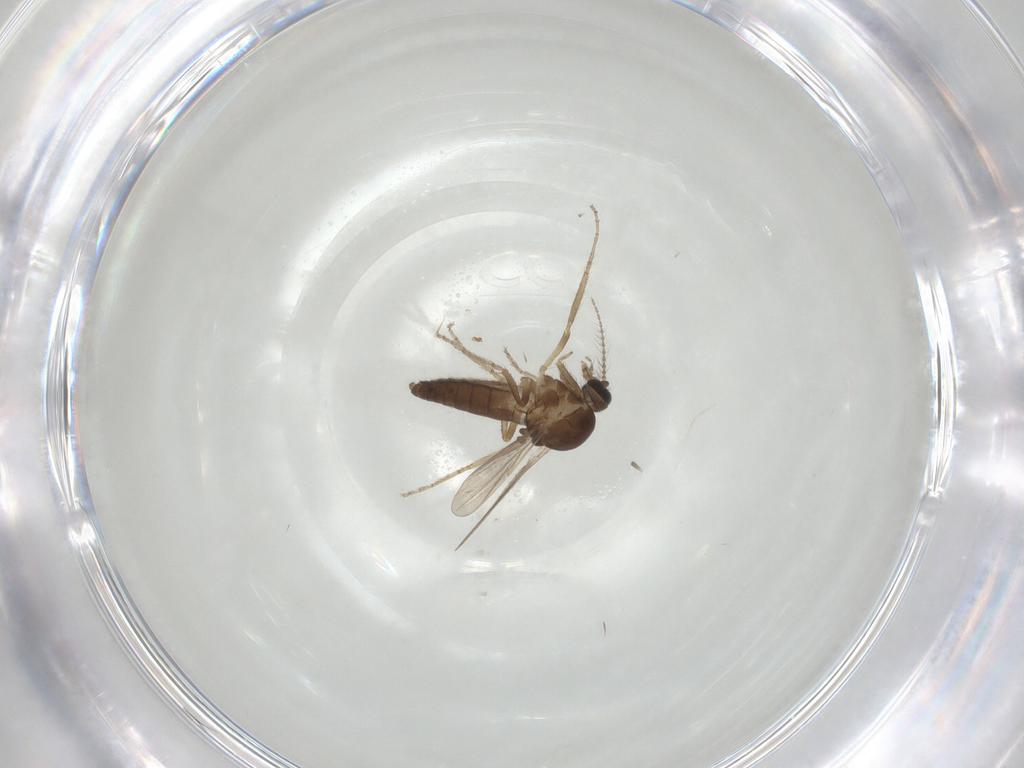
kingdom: Animalia
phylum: Arthropoda
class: Insecta
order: Diptera
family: Ceratopogonidae
